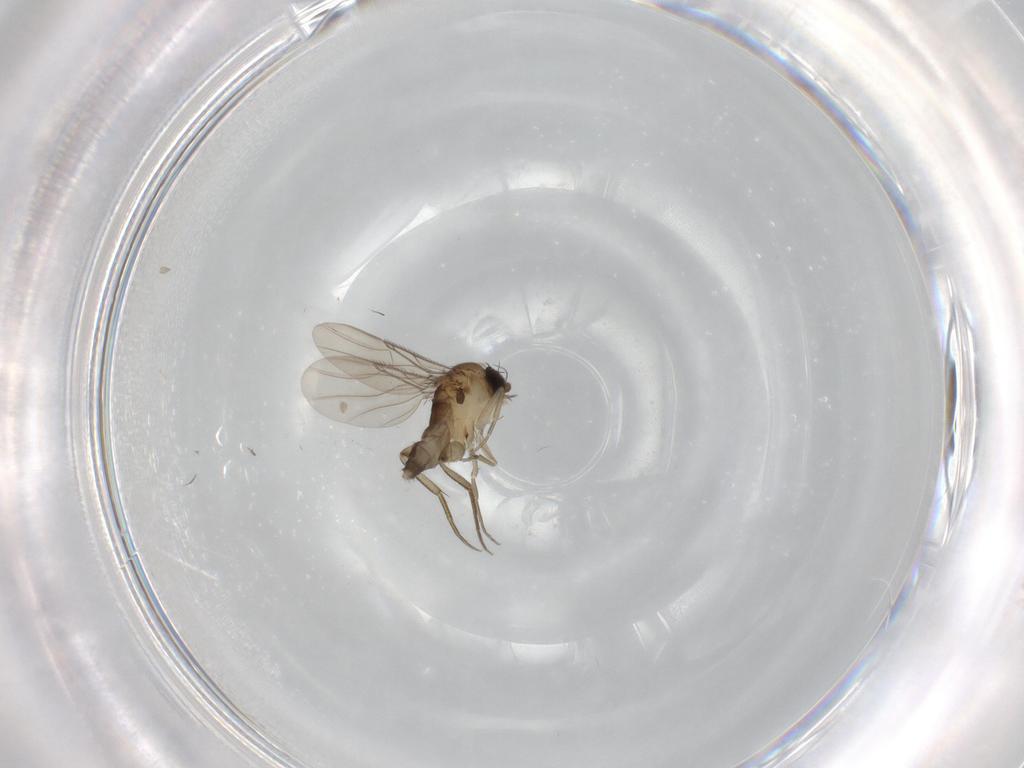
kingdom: Animalia
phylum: Arthropoda
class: Insecta
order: Diptera
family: Phoridae
